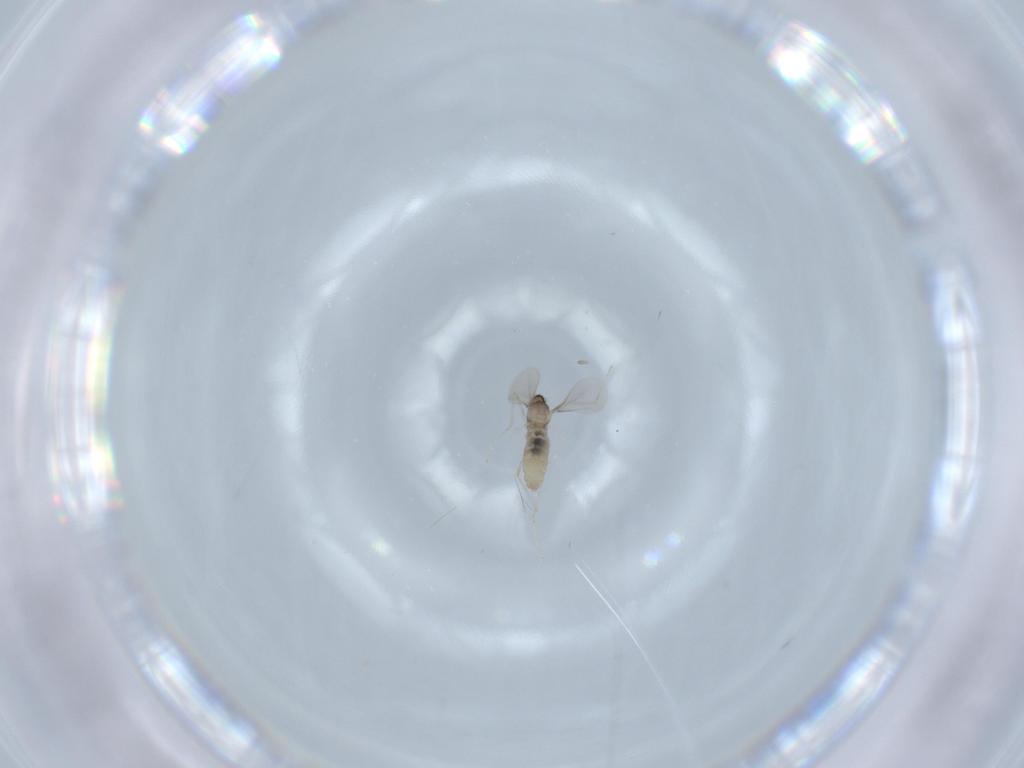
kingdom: Animalia
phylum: Arthropoda
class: Insecta
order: Diptera
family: Cecidomyiidae
